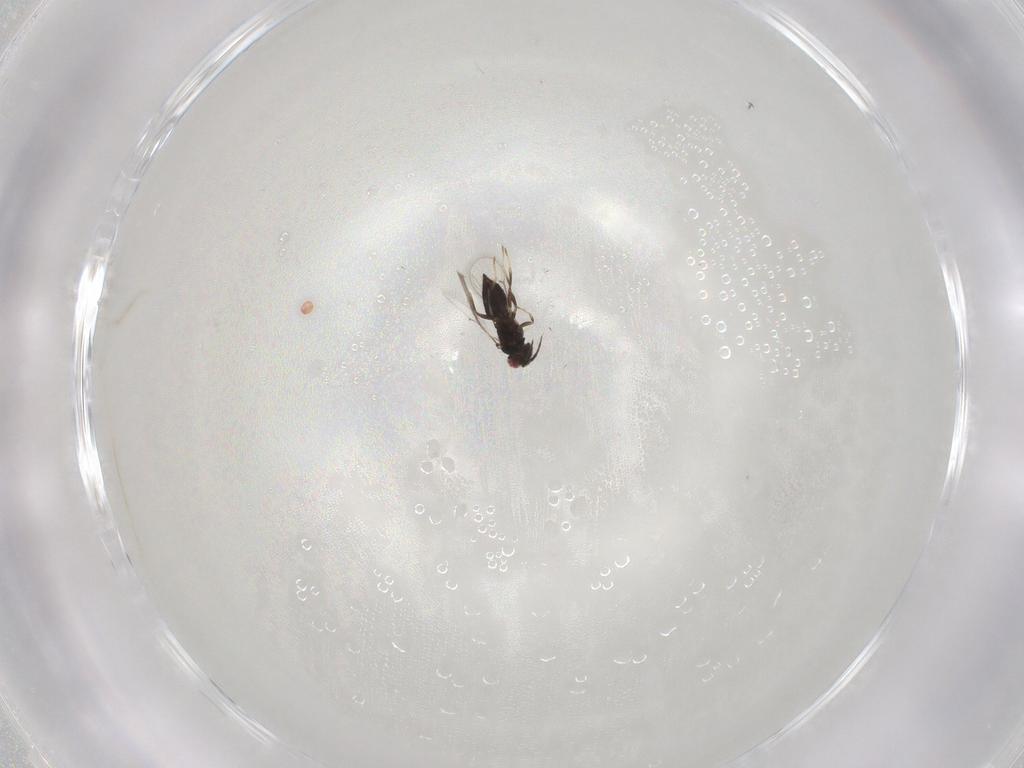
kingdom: Animalia
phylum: Arthropoda
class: Insecta
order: Hymenoptera
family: Eulophidae
